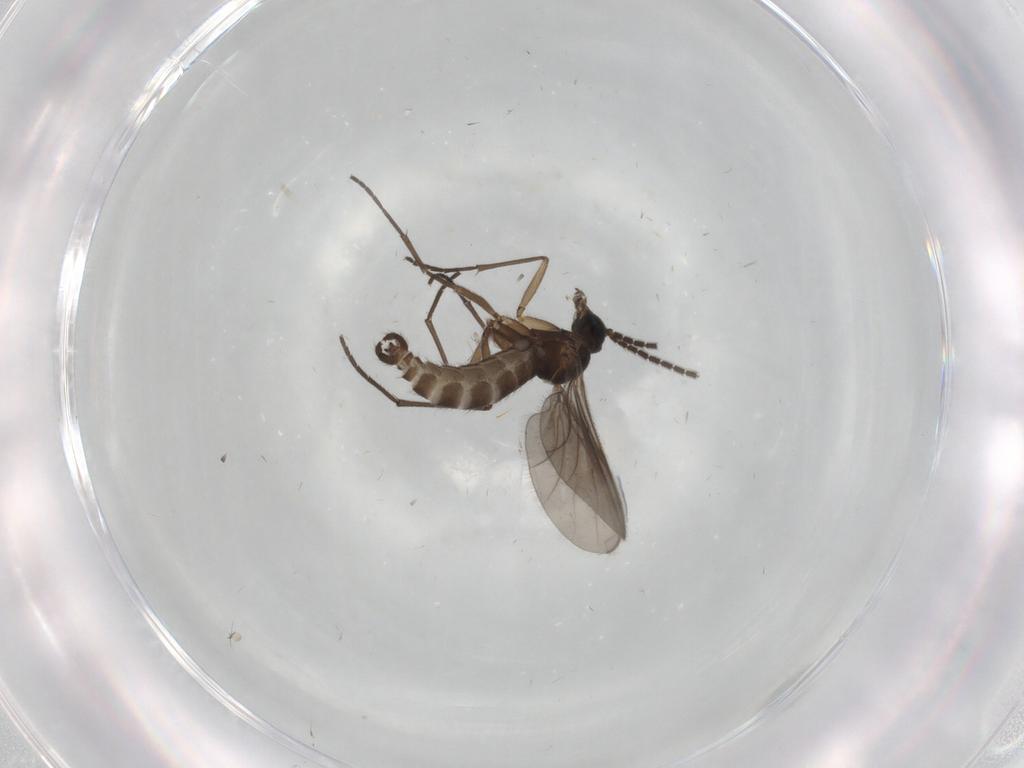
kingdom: Animalia
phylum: Arthropoda
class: Insecta
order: Diptera
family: Sciaridae
